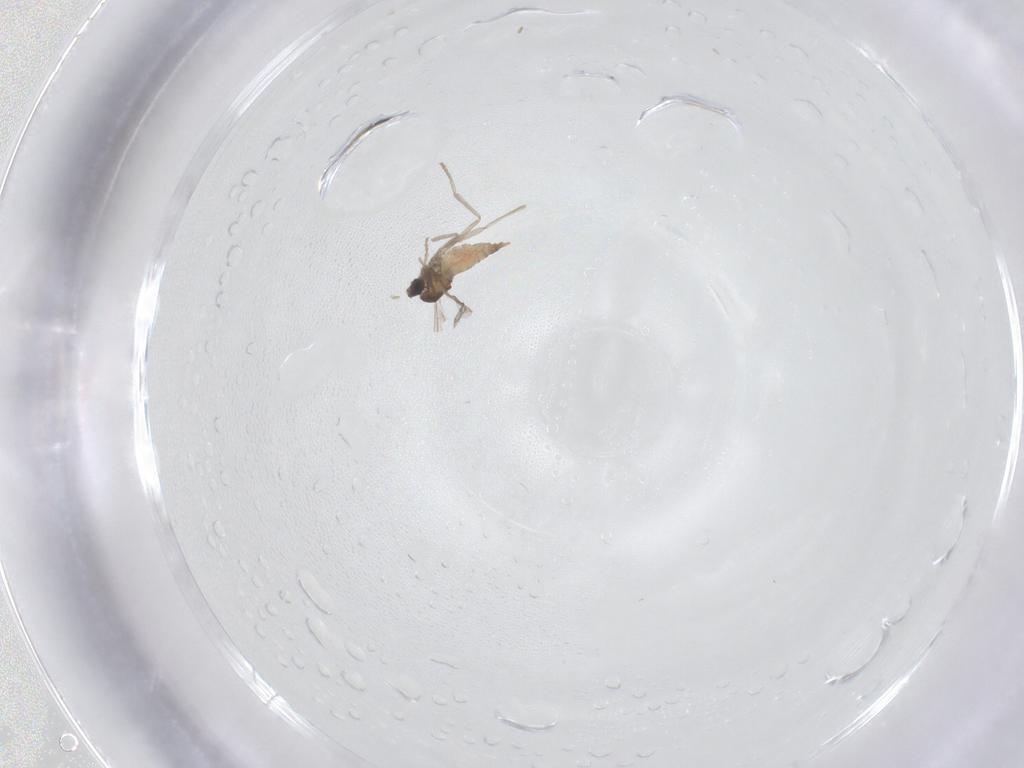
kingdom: Animalia
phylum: Arthropoda
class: Insecta
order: Diptera
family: Cecidomyiidae
